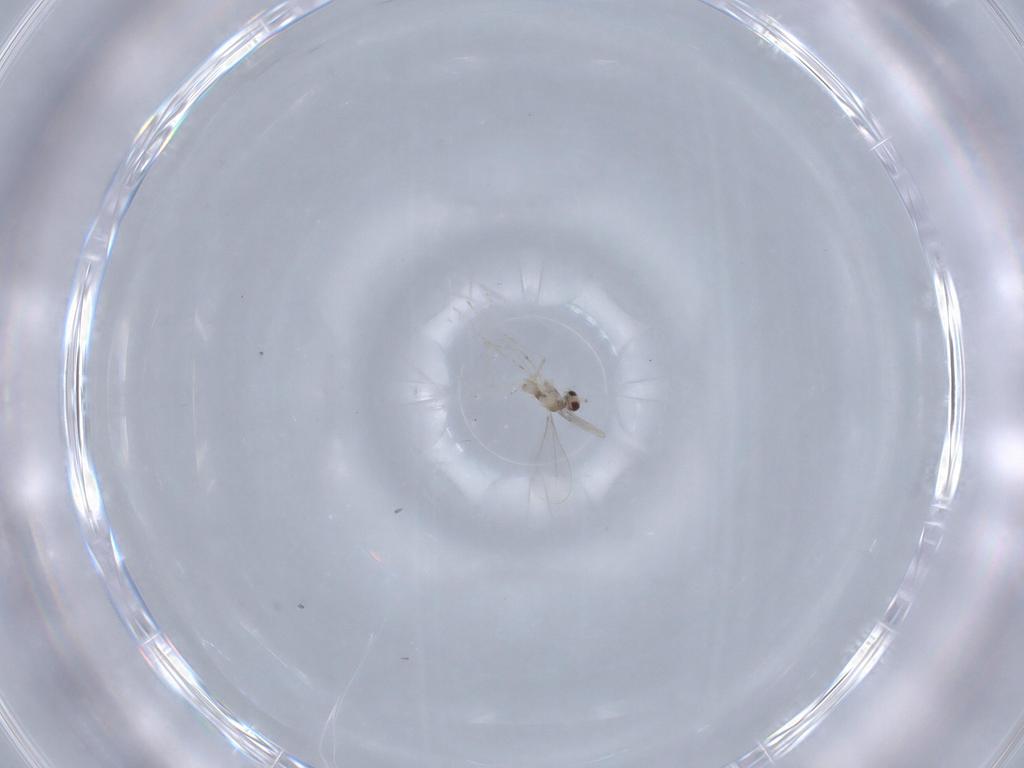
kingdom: Animalia
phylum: Arthropoda
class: Insecta
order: Diptera
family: Cecidomyiidae
